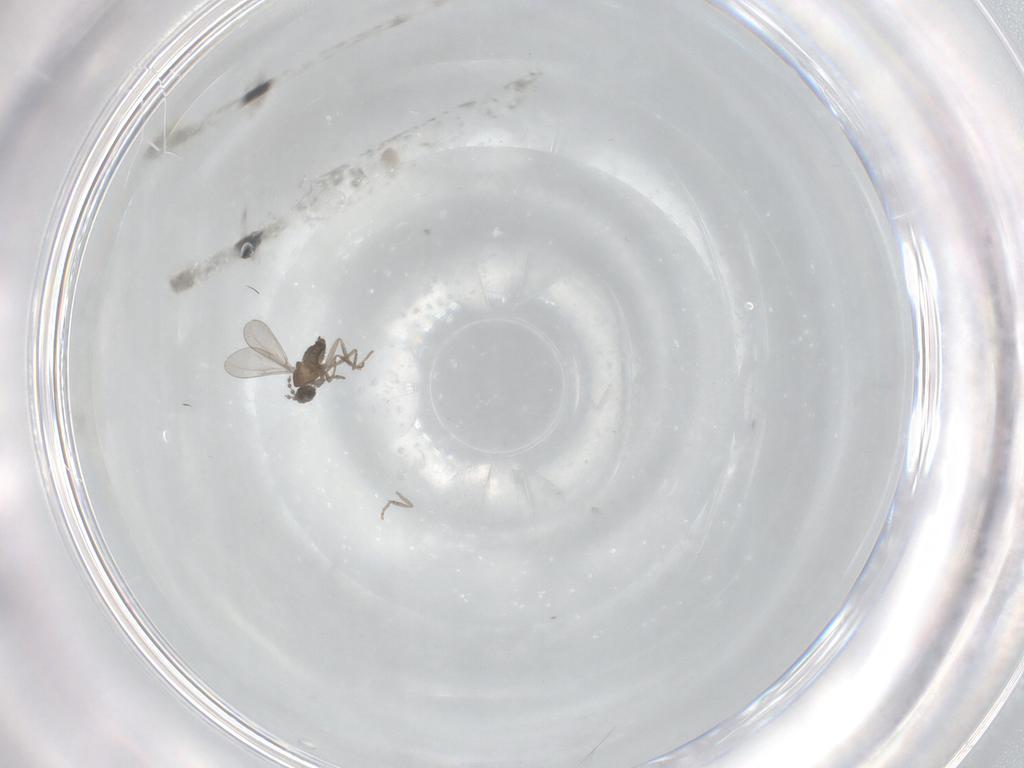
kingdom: Animalia
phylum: Arthropoda
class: Insecta
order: Diptera
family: Cecidomyiidae
